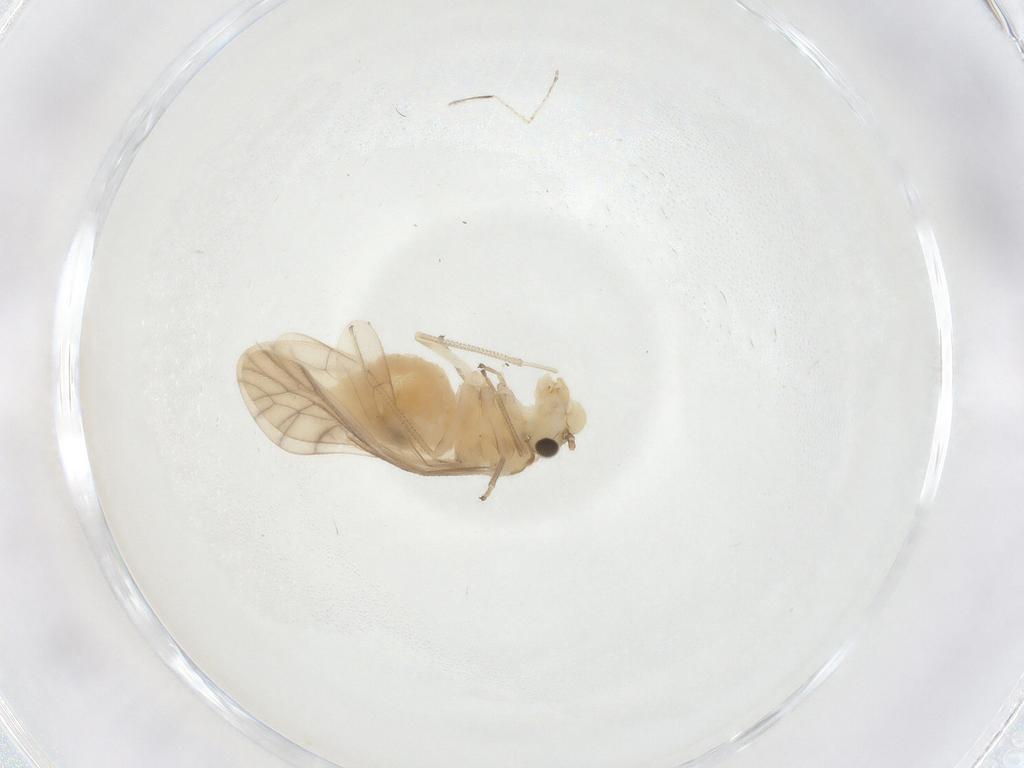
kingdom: Animalia
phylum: Arthropoda
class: Insecta
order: Psocodea
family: Caeciliusidae
